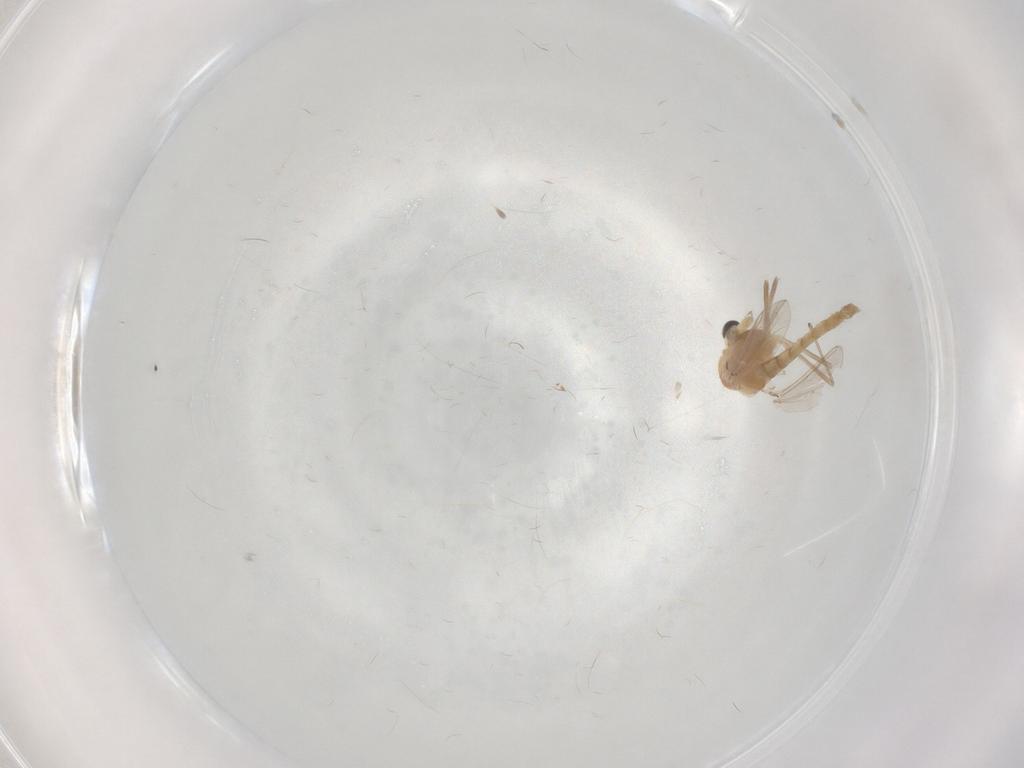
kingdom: Animalia
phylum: Arthropoda
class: Insecta
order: Diptera
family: Chironomidae
